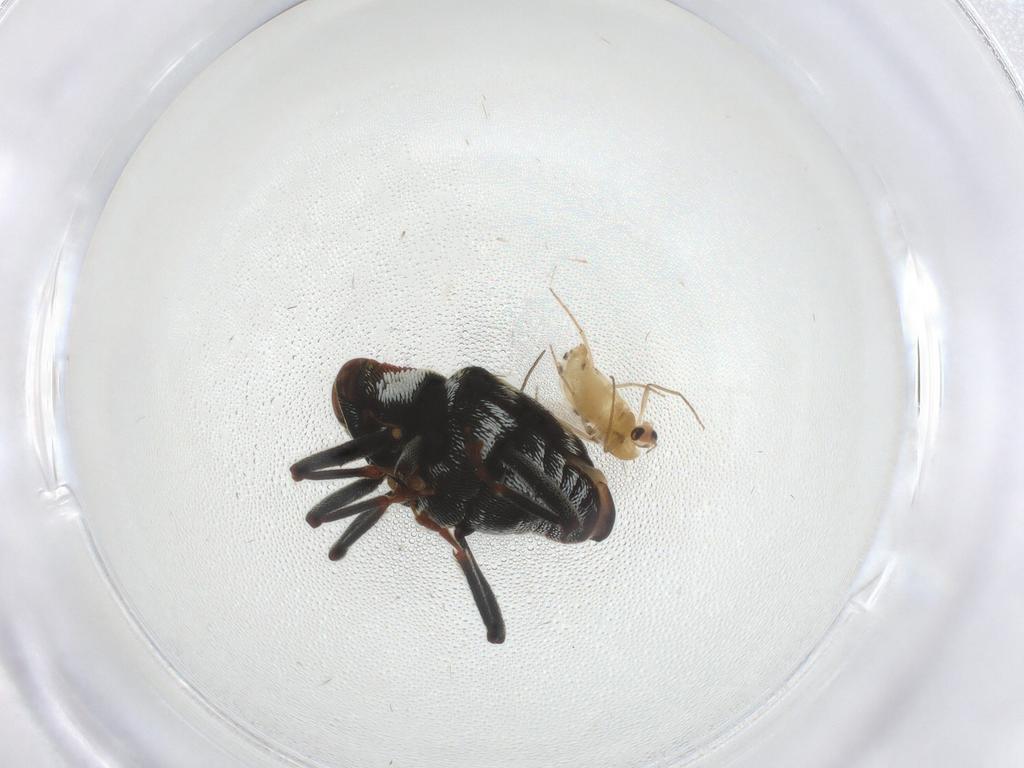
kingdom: Animalia
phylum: Arthropoda
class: Insecta
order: Coleoptera
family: Curculionidae
